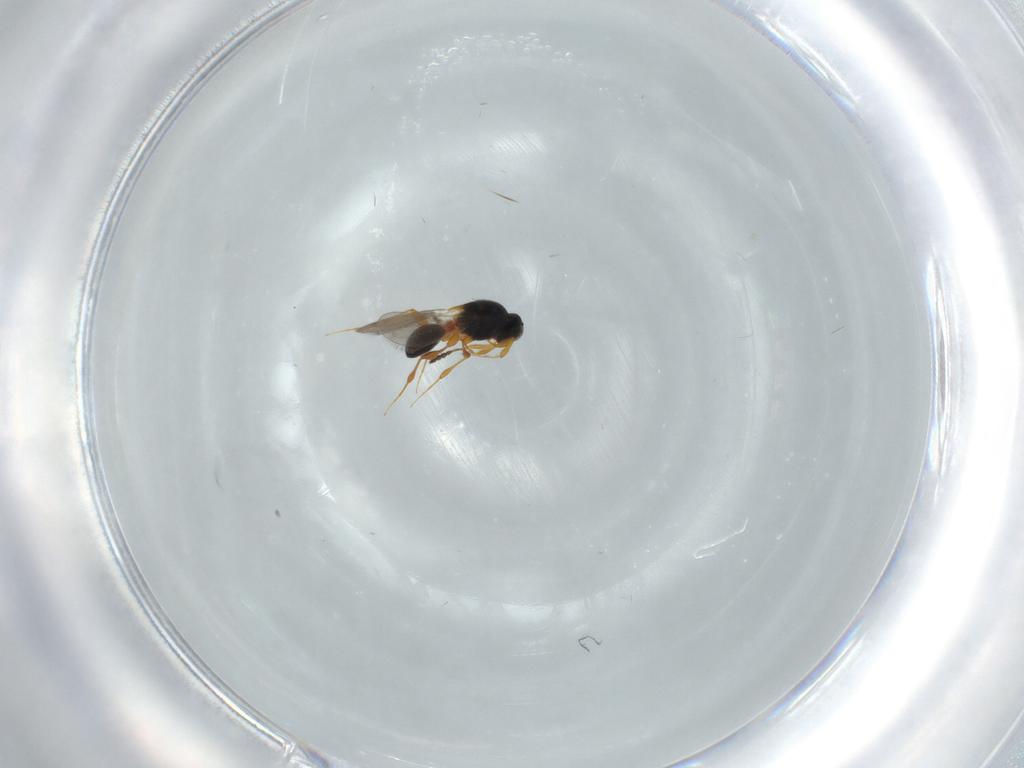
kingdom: Animalia
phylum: Arthropoda
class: Insecta
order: Hymenoptera
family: Platygastridae
